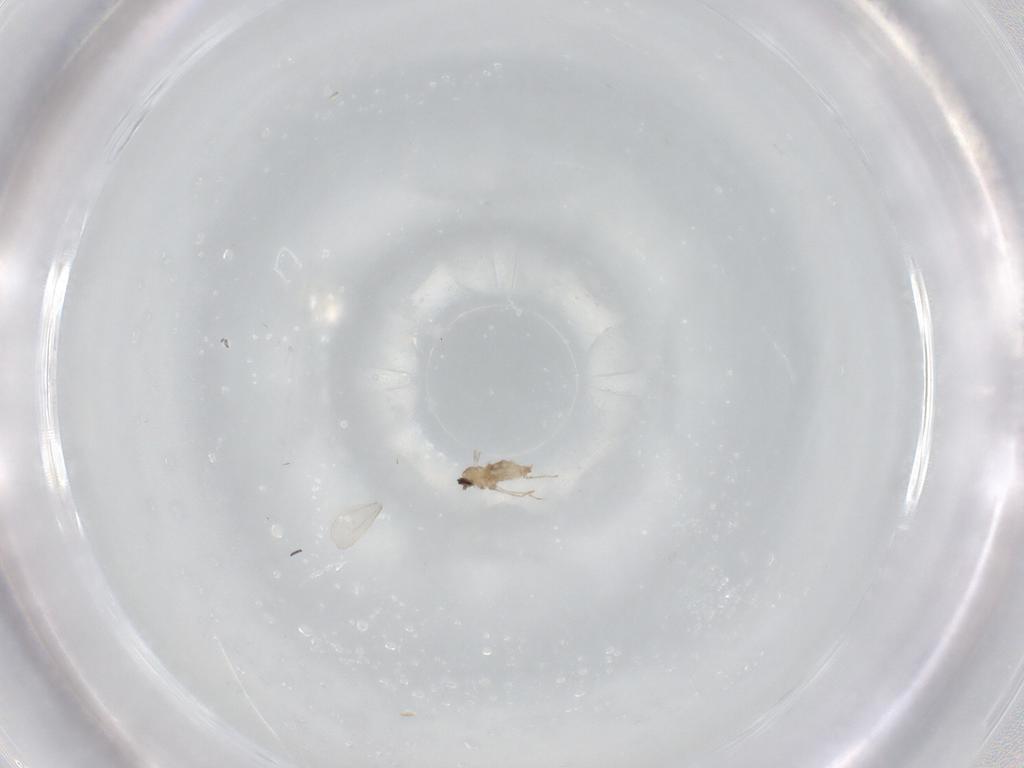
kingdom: Animalia
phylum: Arthropoda
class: Insecta
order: Diptera
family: Cecidomyiidae
